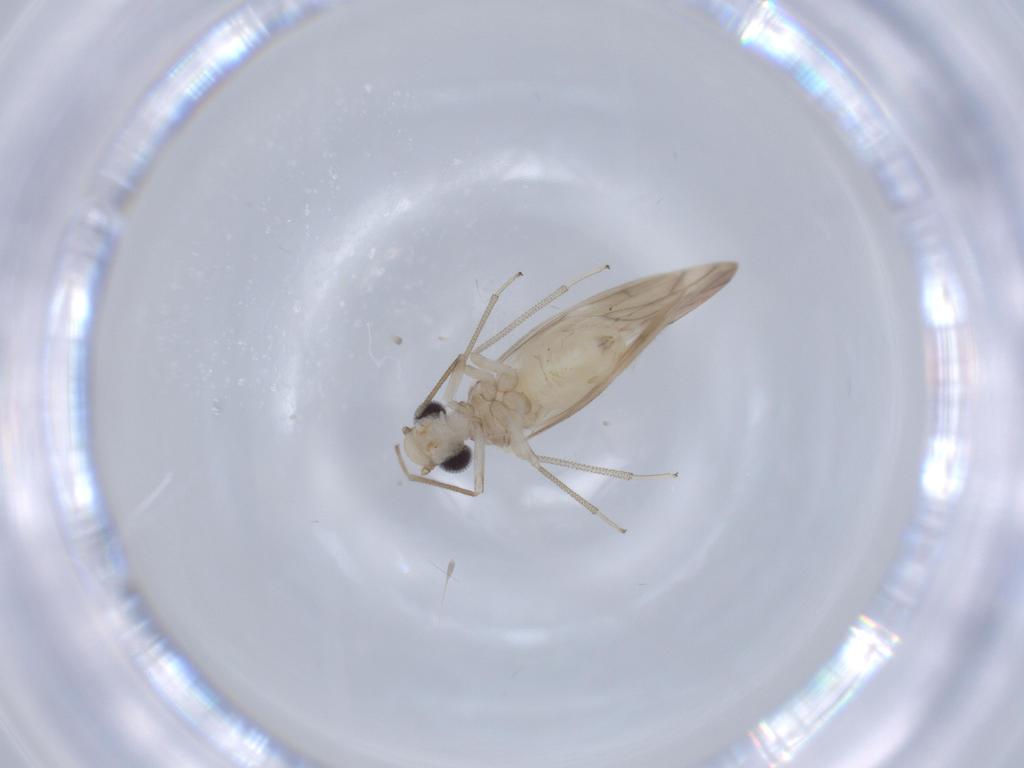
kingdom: Animalia
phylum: Arthropoda
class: Insecta
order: Psocodea
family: Caeciliusidae
